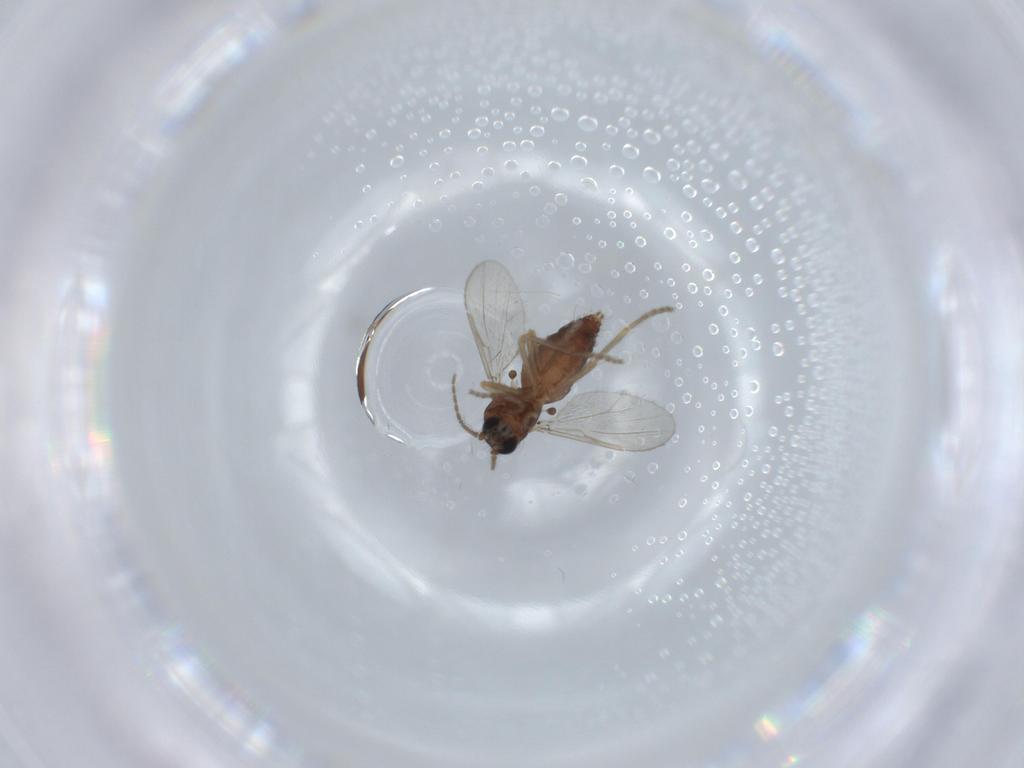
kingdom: Animalia
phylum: Arthropoda
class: Insecta
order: Diptera
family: Ceratopogonidae
